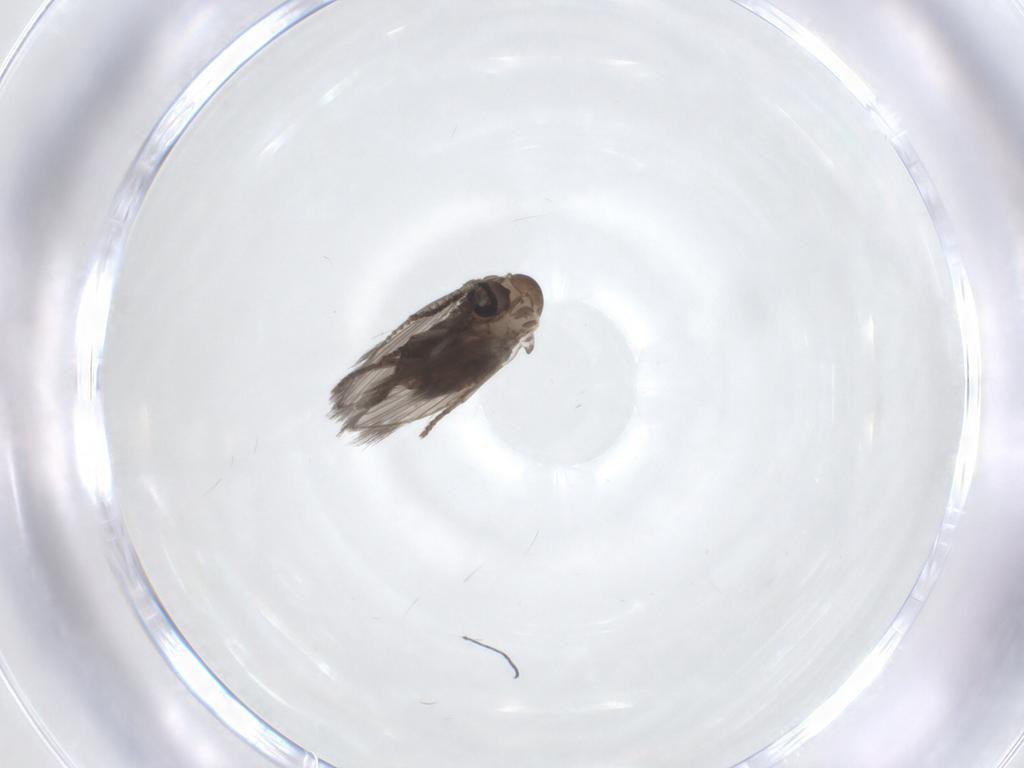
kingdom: Animalia
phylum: Arthropoda
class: Insecta
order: Diptera
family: Psychodidae
